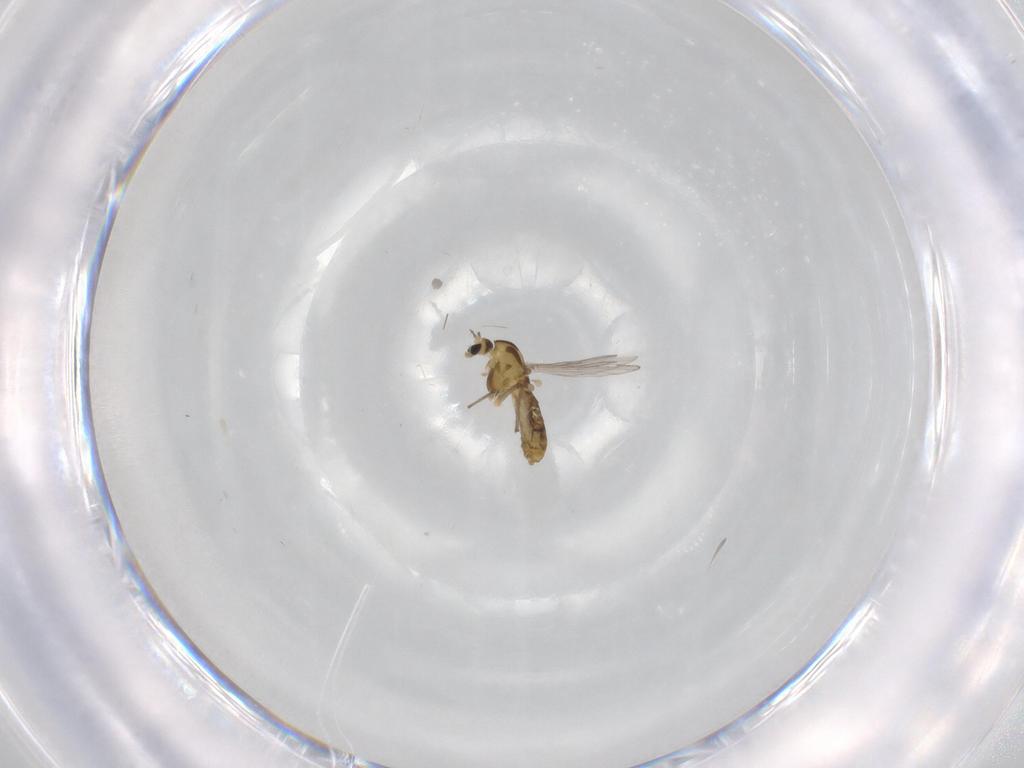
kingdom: Animalia
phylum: Arthropoda
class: Insecta
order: Diptera
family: Chironomidae
